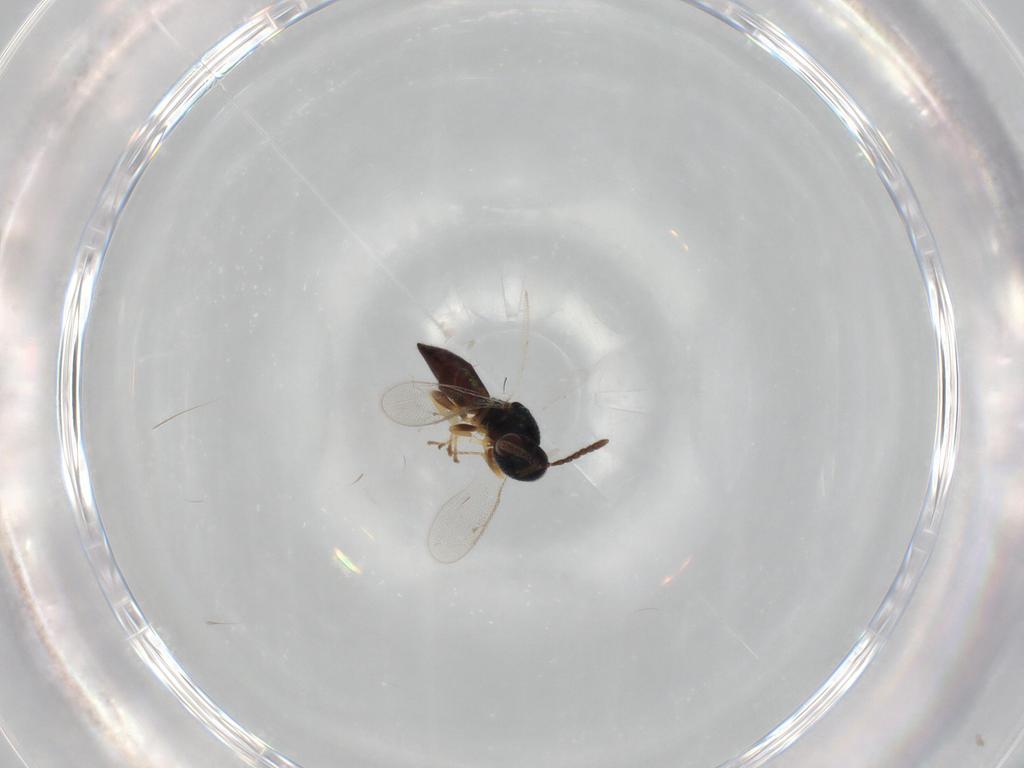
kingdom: Animalia
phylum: Arthropoda
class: Insecta
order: Hymenoptera
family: Pteromalidae
